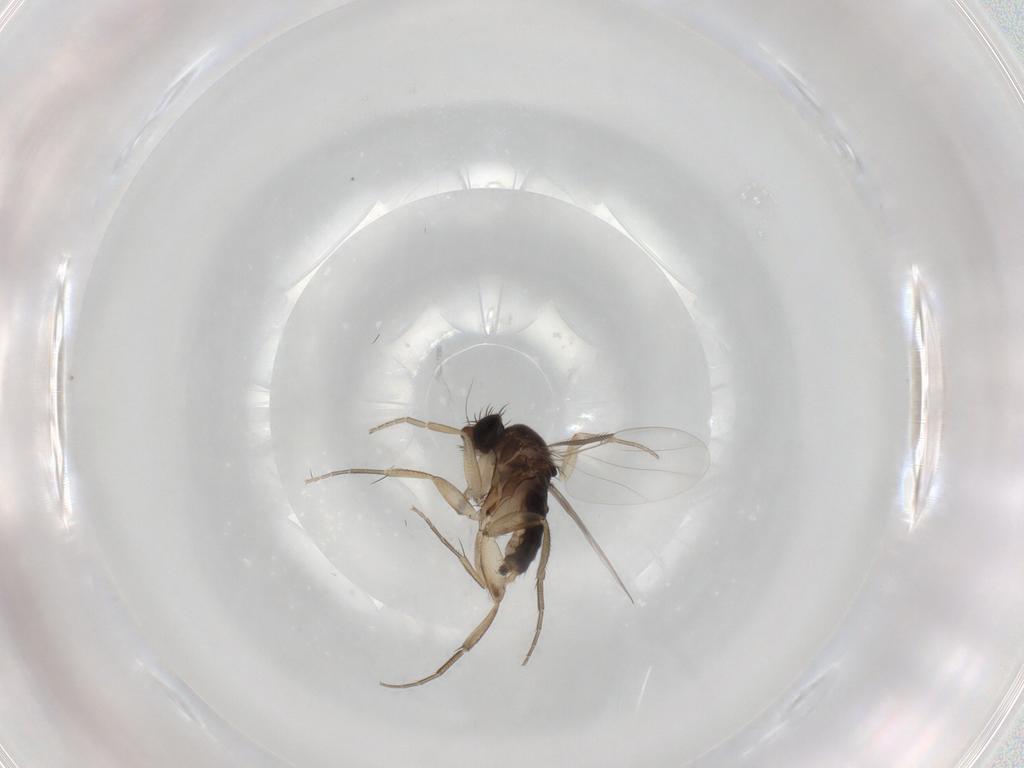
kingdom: Animalia
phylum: Arthropoda
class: Insecta
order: Diptera
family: Phoridae
